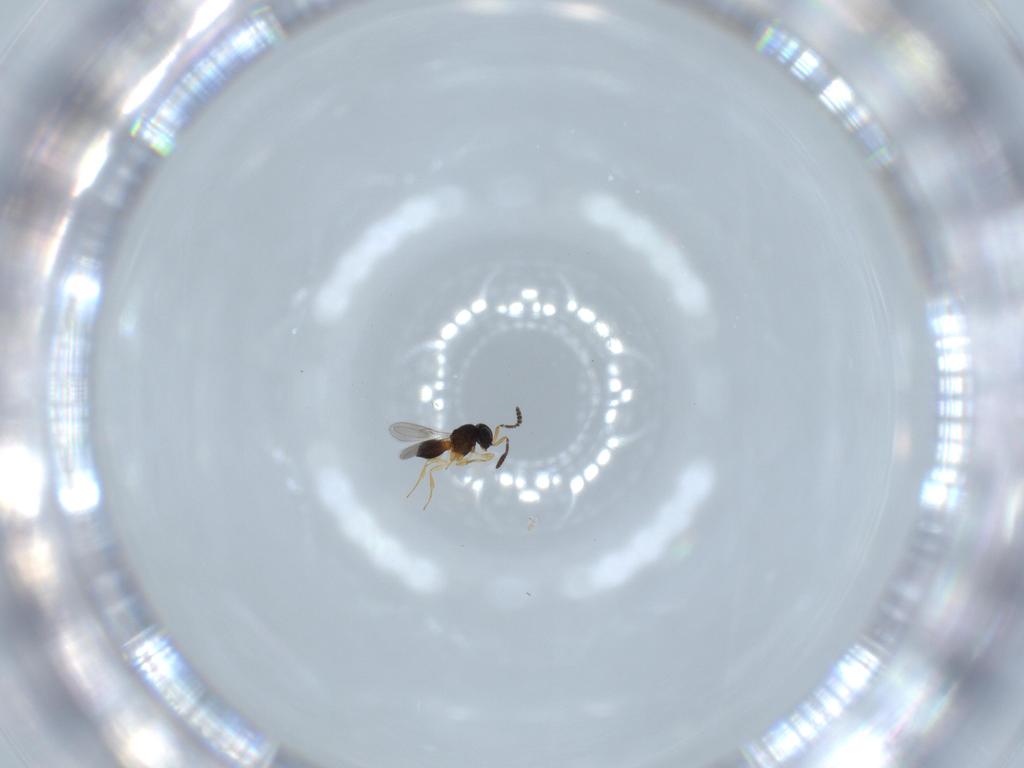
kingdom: Animalia
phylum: Arthropoda
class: Insecta
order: Hymenoptera
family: Scelionidae
